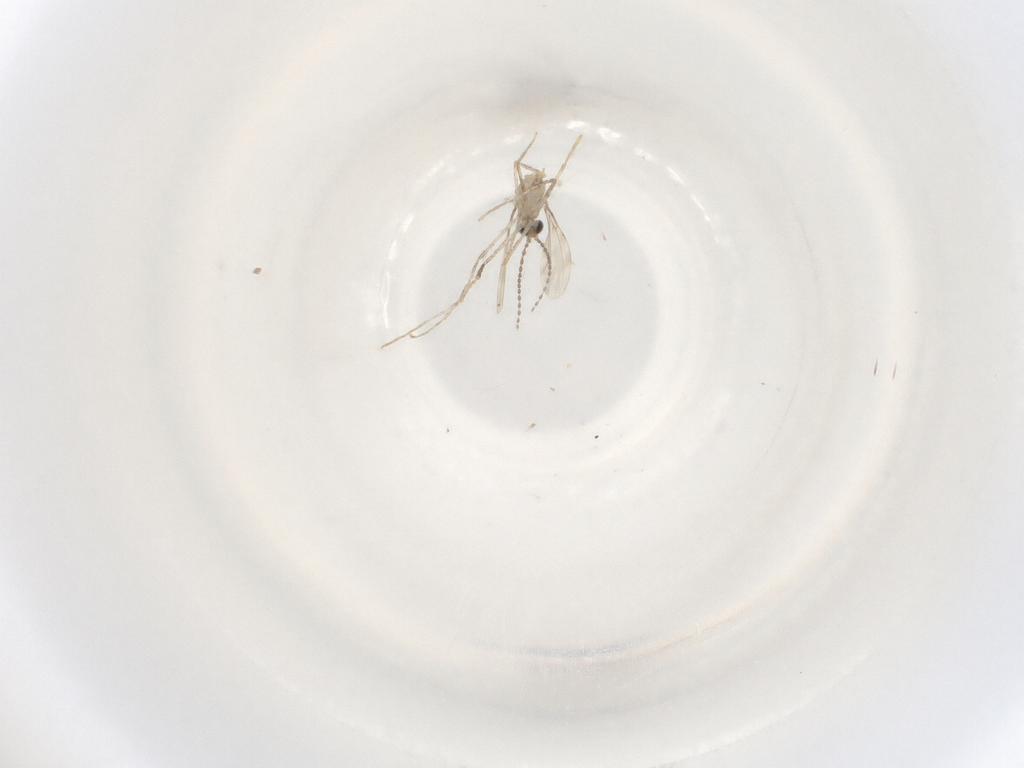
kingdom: Animalia
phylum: Arthropoda
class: Insecta
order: Diptera
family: Cecidomyiidae
